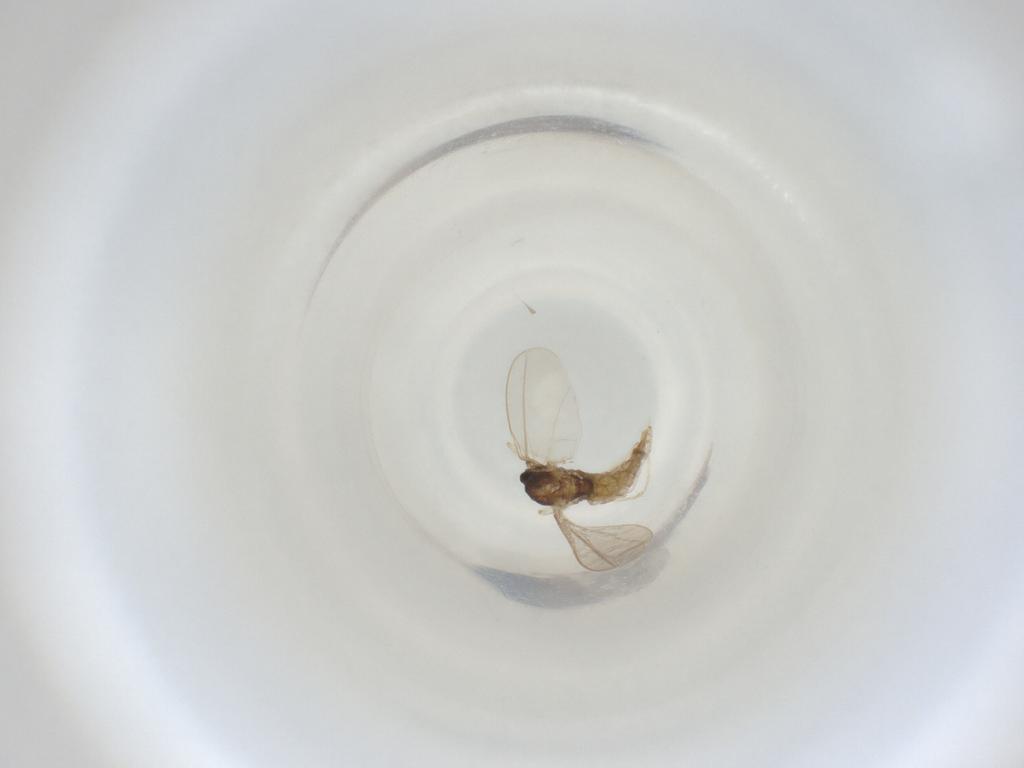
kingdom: Animalia
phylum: Arthropoda
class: Insecta
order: Diptera
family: Cecidomyiidae
